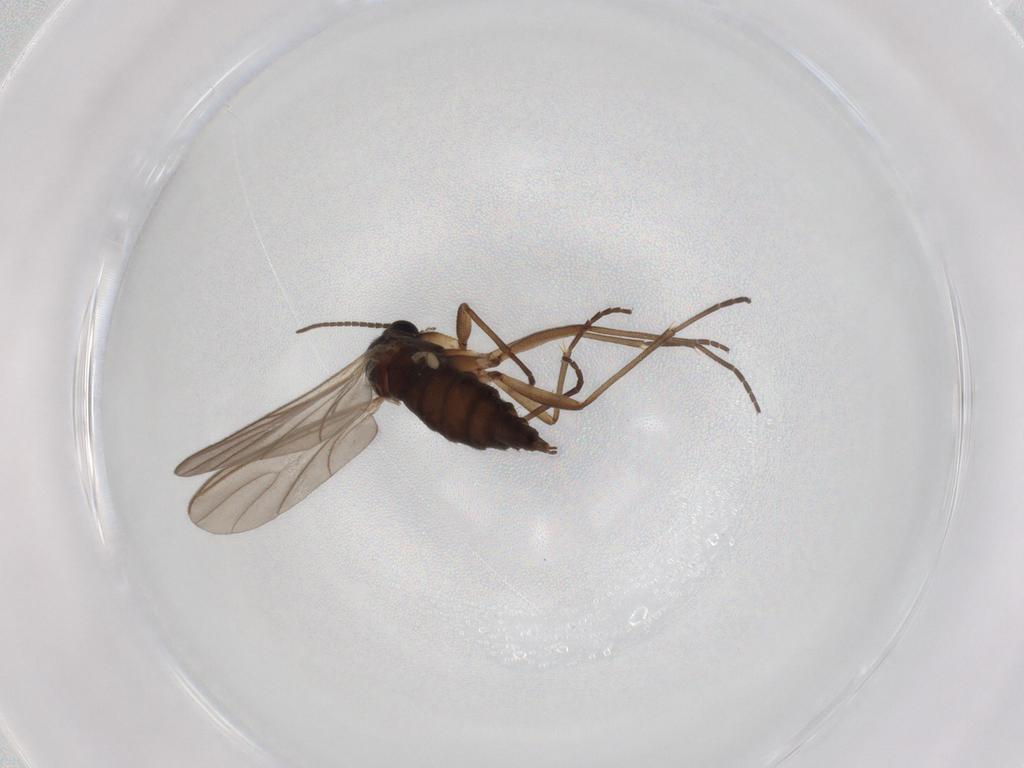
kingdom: Animalia
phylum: Arthropoda
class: Insecta
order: Diptera
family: Sciaridae
